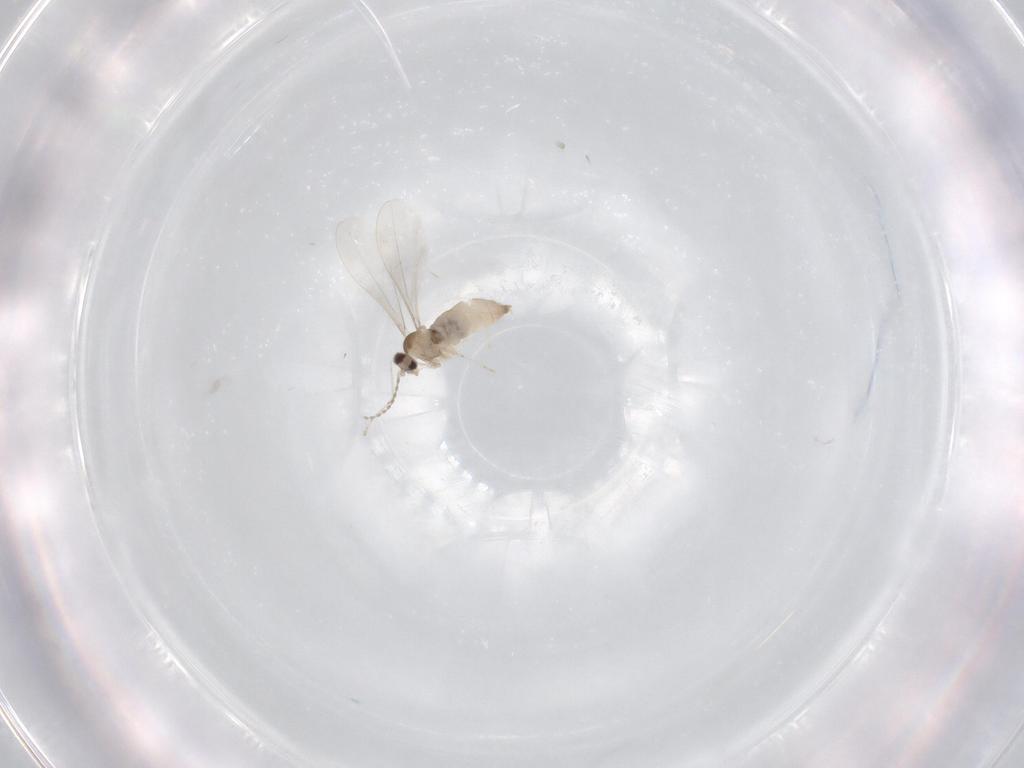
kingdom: Animalia
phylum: Arthropoda
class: Insecta
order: Diptera
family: Cecidomyiidae
